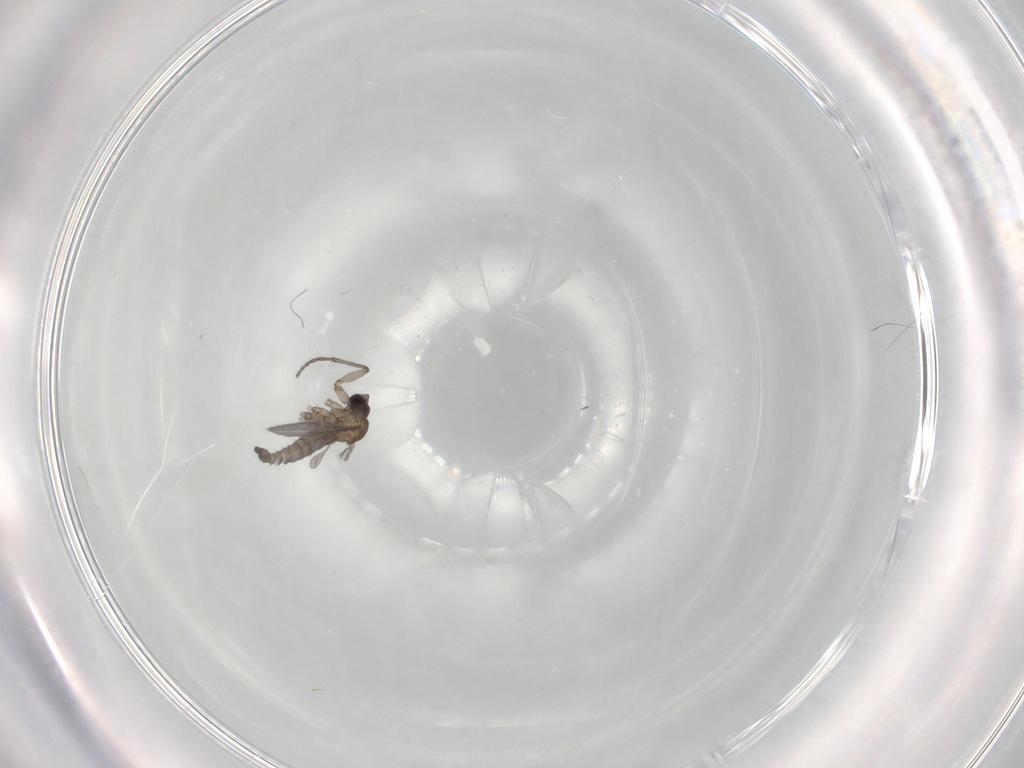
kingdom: Animalia
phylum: Arthropoda
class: Insecta
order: Diptera
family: Sciaridae
